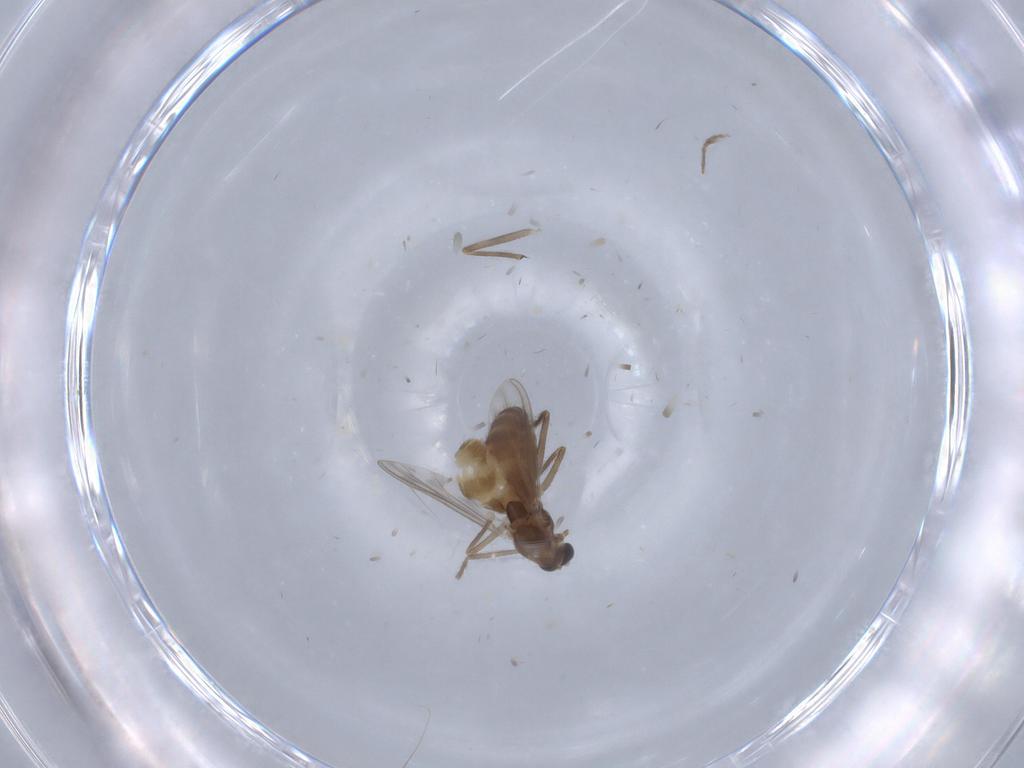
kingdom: Animalia
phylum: Arthropoda
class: Insecta
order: Diptera
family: Chironomidae
